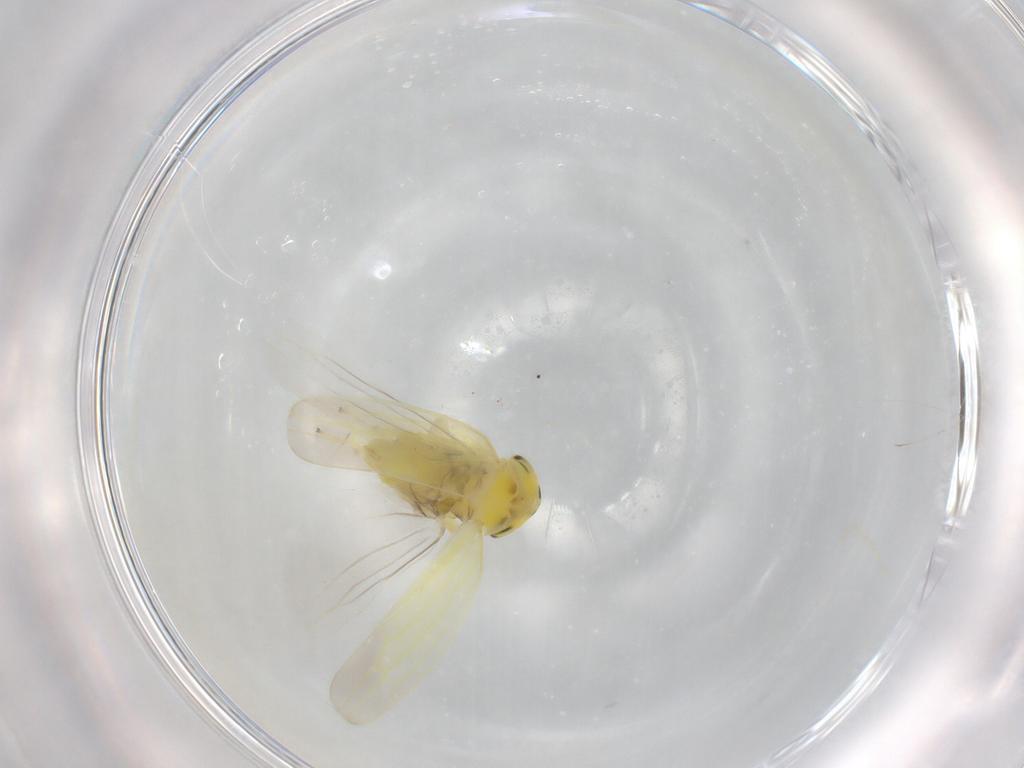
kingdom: Animalia
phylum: Arthropoda
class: Insecta
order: Hemiptera
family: Cicadellidae
